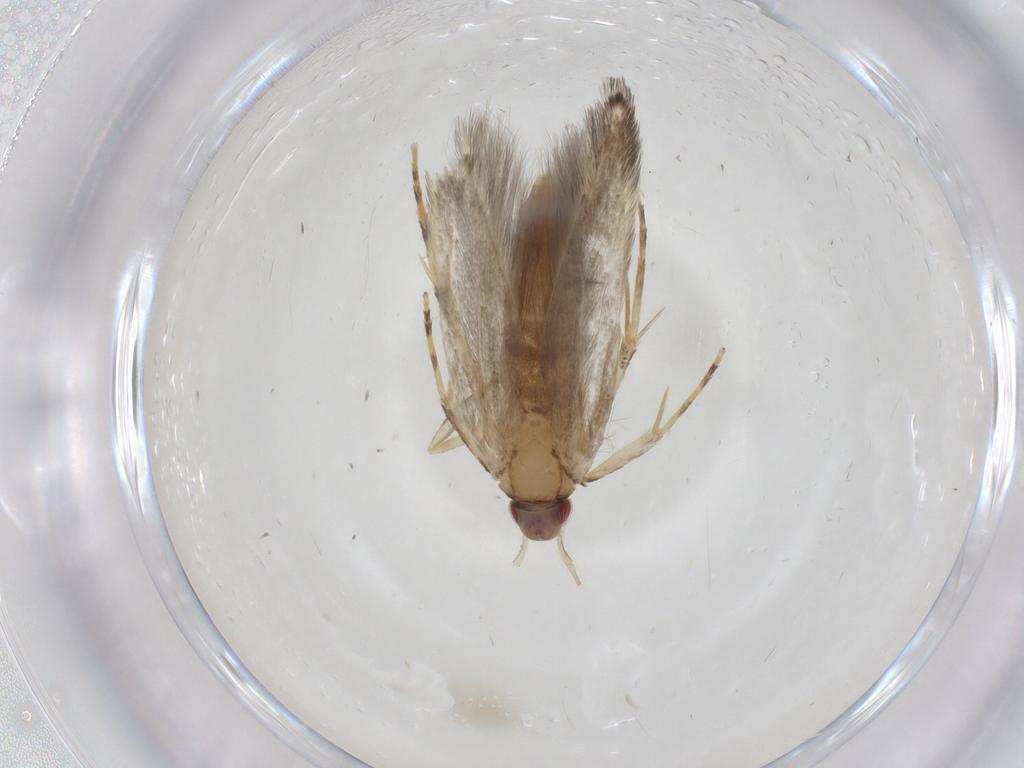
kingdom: Animalia
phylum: Arthropoda
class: Insecta
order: Lepidoptera
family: Cosmopterigidae
